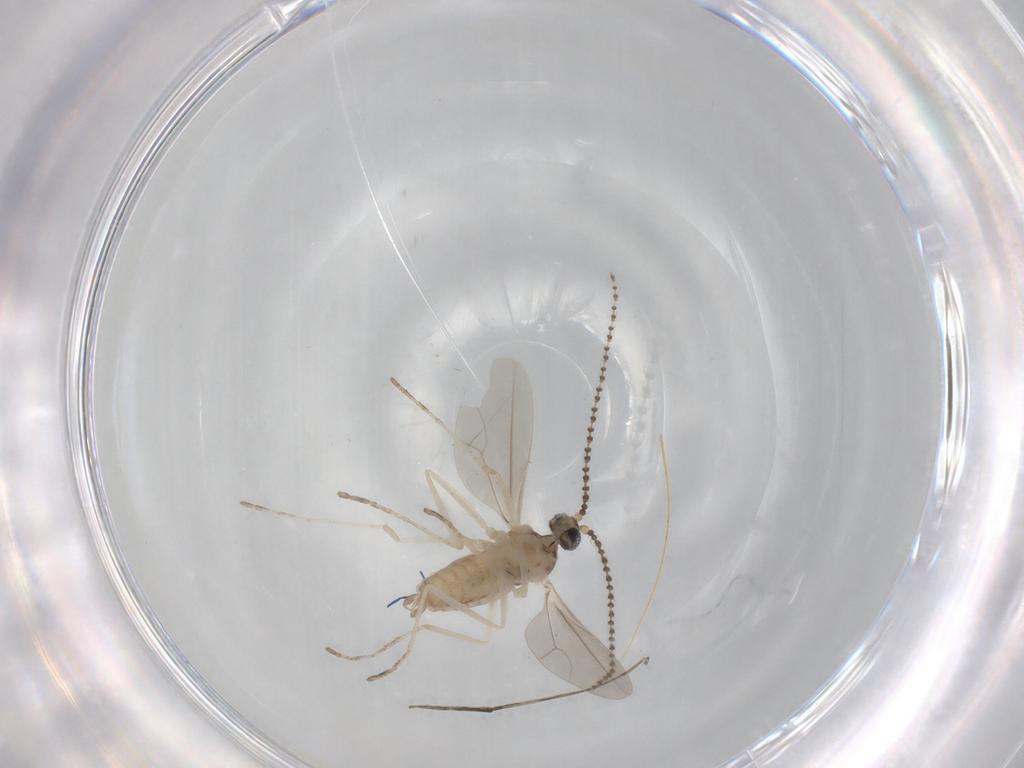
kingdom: Animalia
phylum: Arthropoda
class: Insecta
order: Diptera
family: Cecidomyiidae
